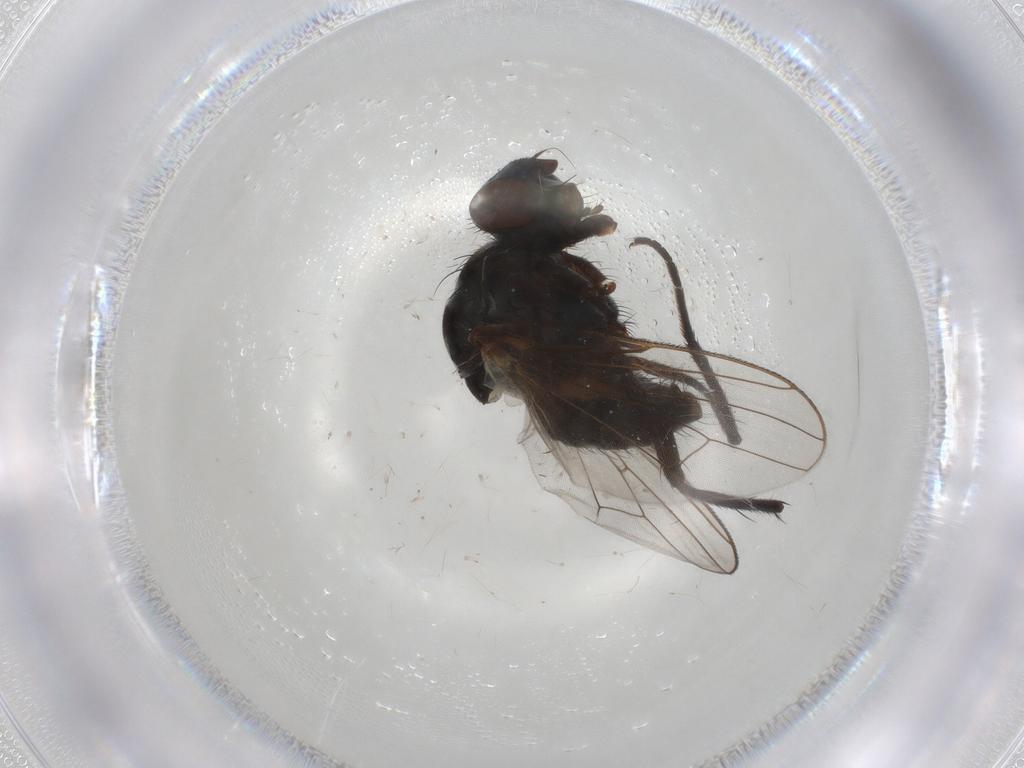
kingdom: Animalia
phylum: Arthropoda
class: Insecta
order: Diptera
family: Anthomyiidae
